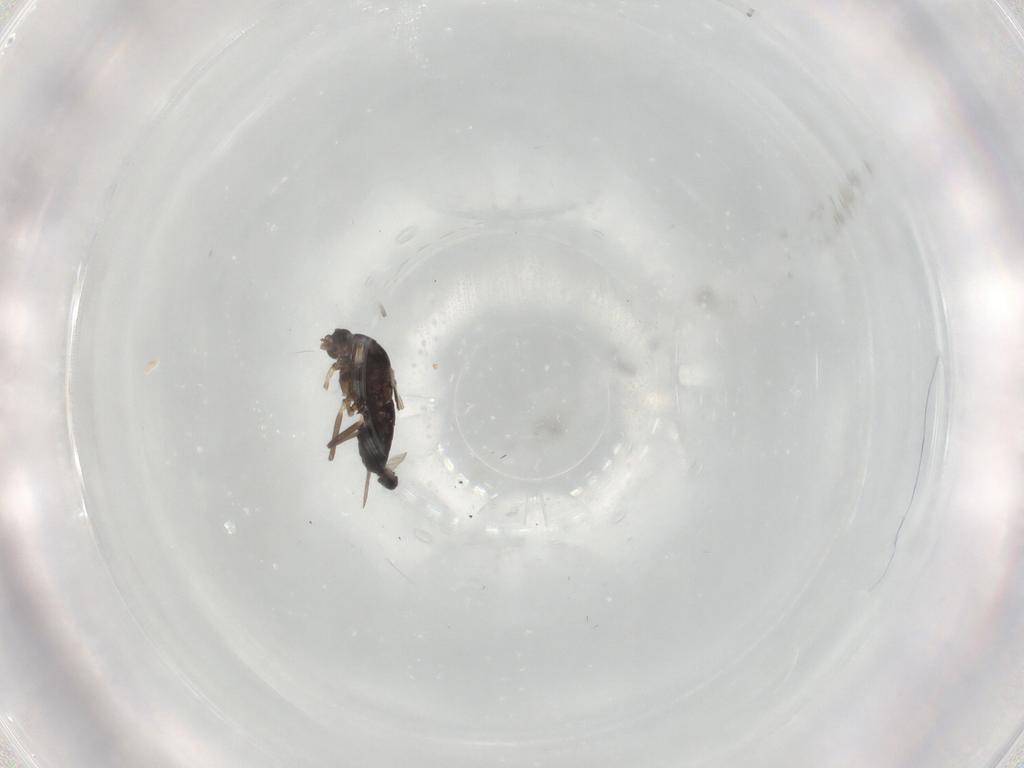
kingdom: Animalia
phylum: Arthropoda
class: Insecta
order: Diptera
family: Chironomidae
